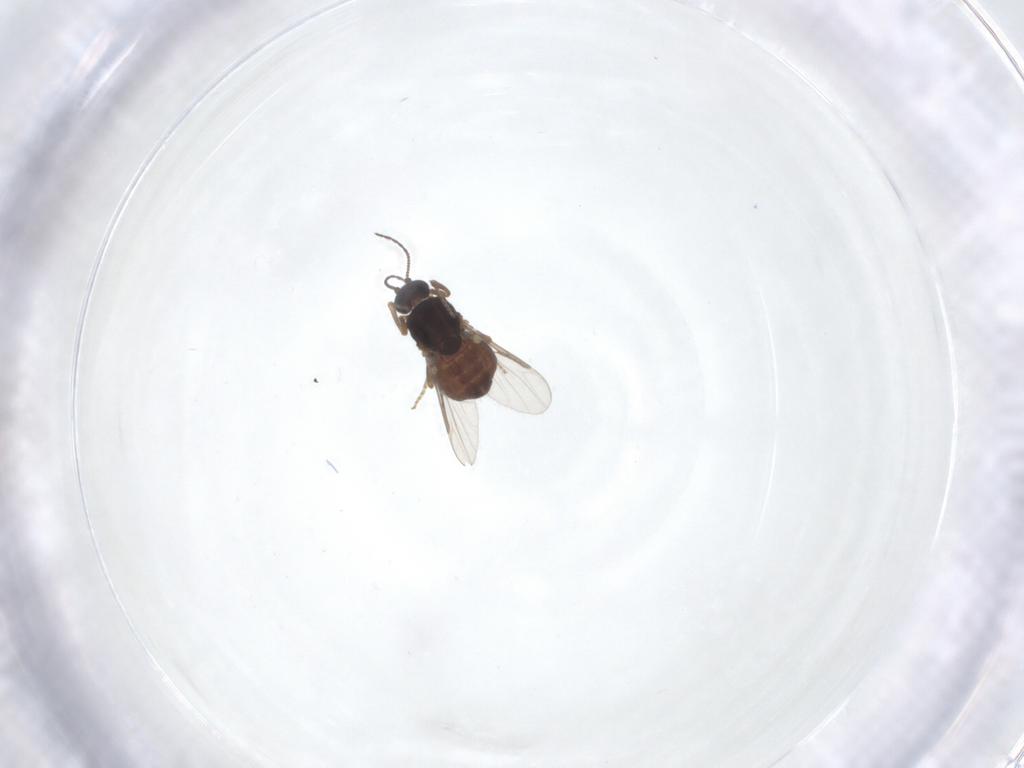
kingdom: Animalia
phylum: Arthropoda
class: Insecta
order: Diptera
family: Ceratopogonidae
